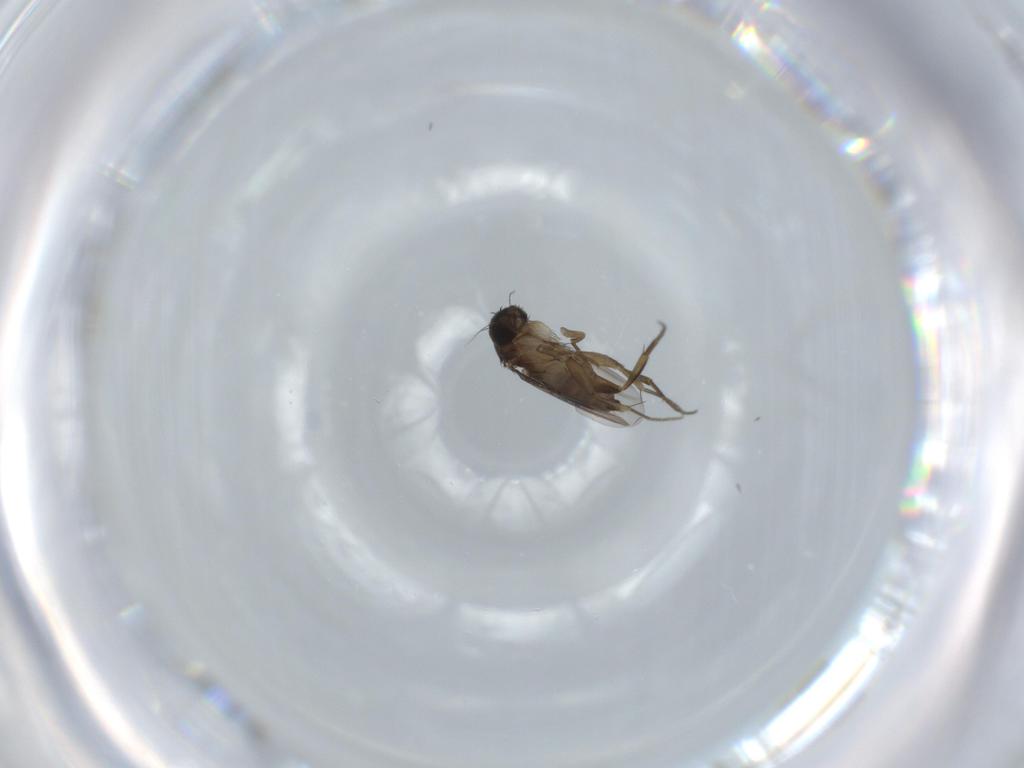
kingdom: Animalia
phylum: Arthropoda
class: Insecta
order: Diptera
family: Phoridae
